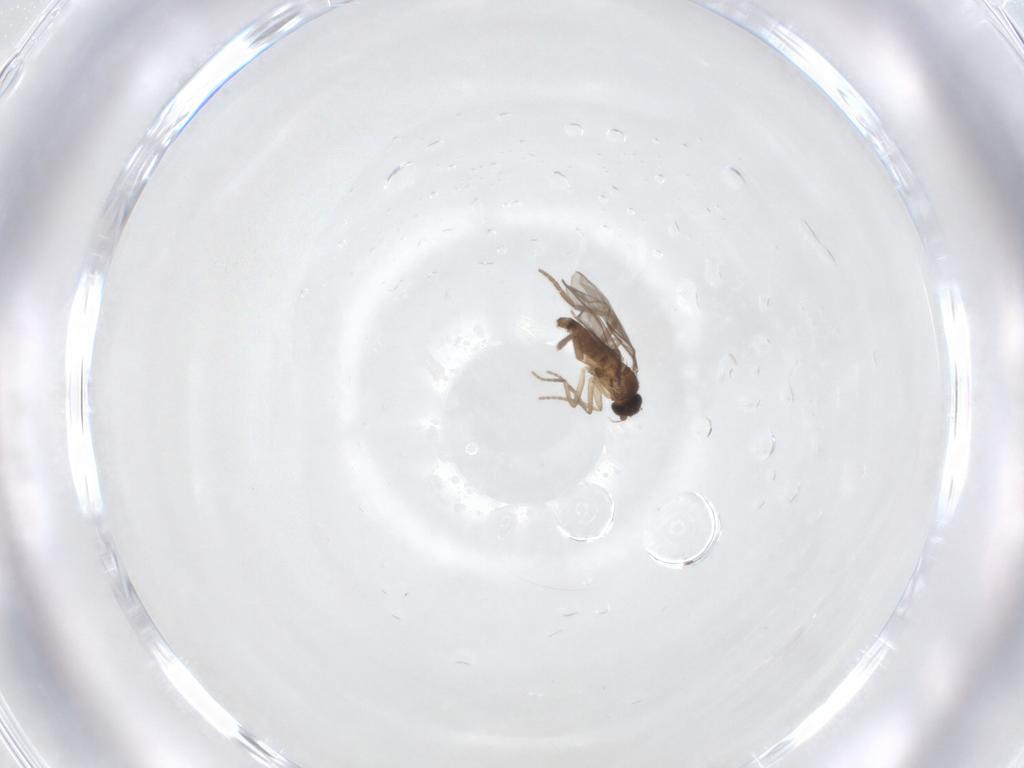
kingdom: Animalia
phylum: Arthropoda
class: Insecta
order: Diptera
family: Phoridae
